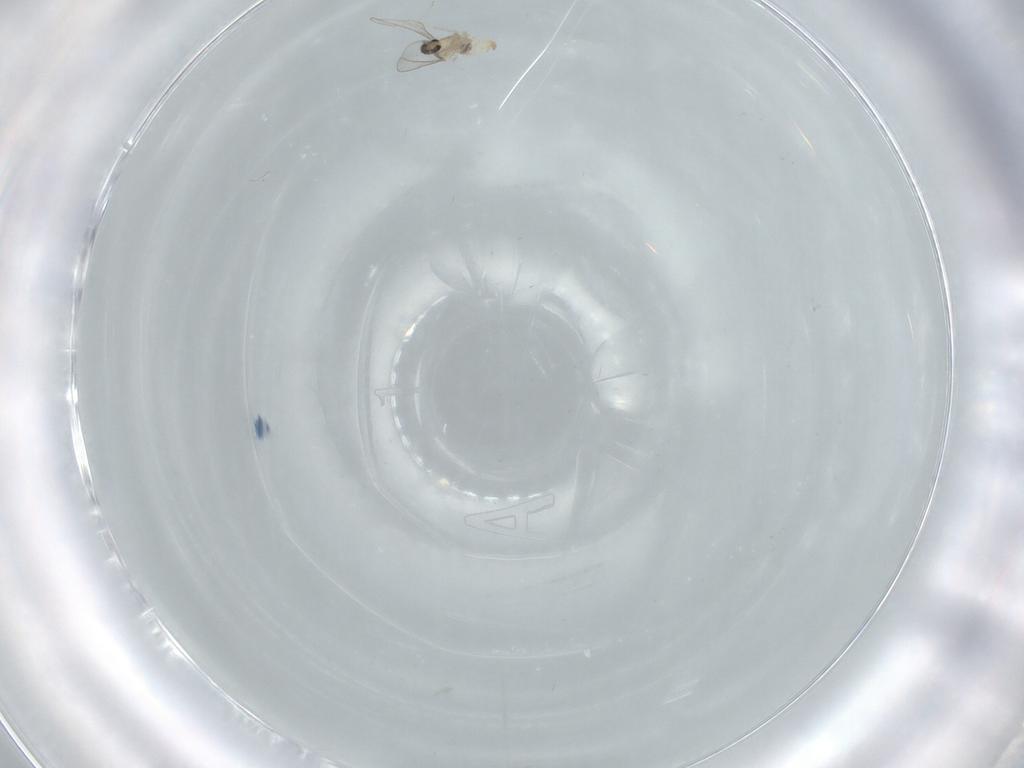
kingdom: Animalia
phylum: Arthropoda
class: Insecta
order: Diptera
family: Cecidomyiidae
